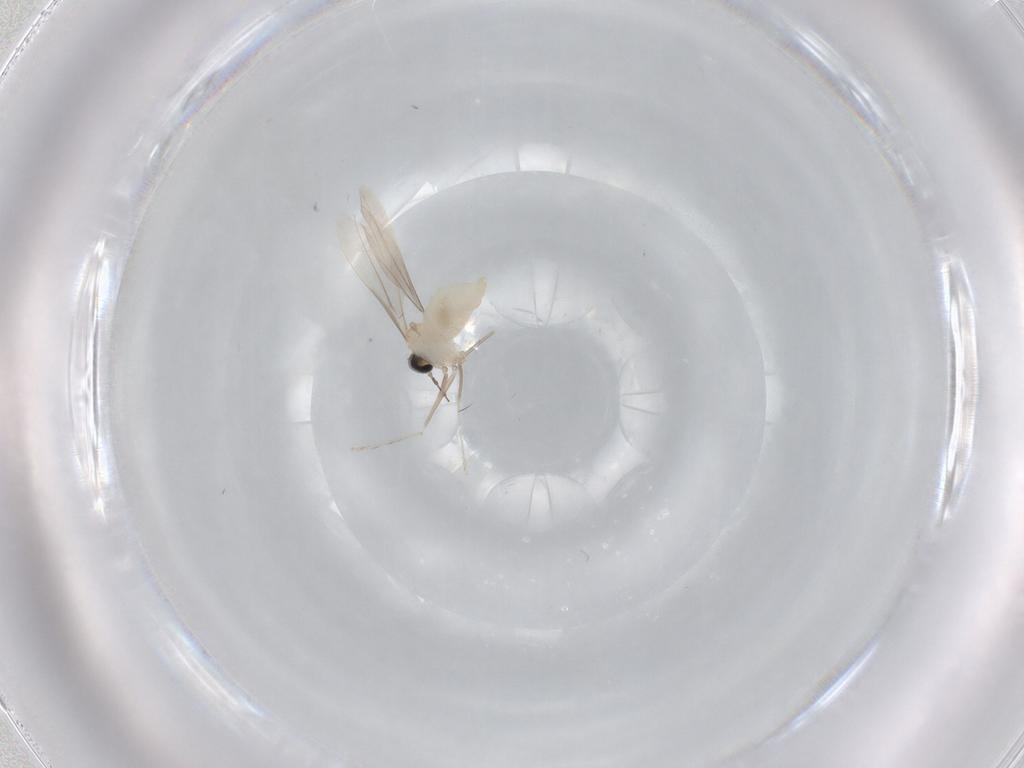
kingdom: Animalia
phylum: Arthropoda
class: Insecta
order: Diptera
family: Cecidomyiidae
